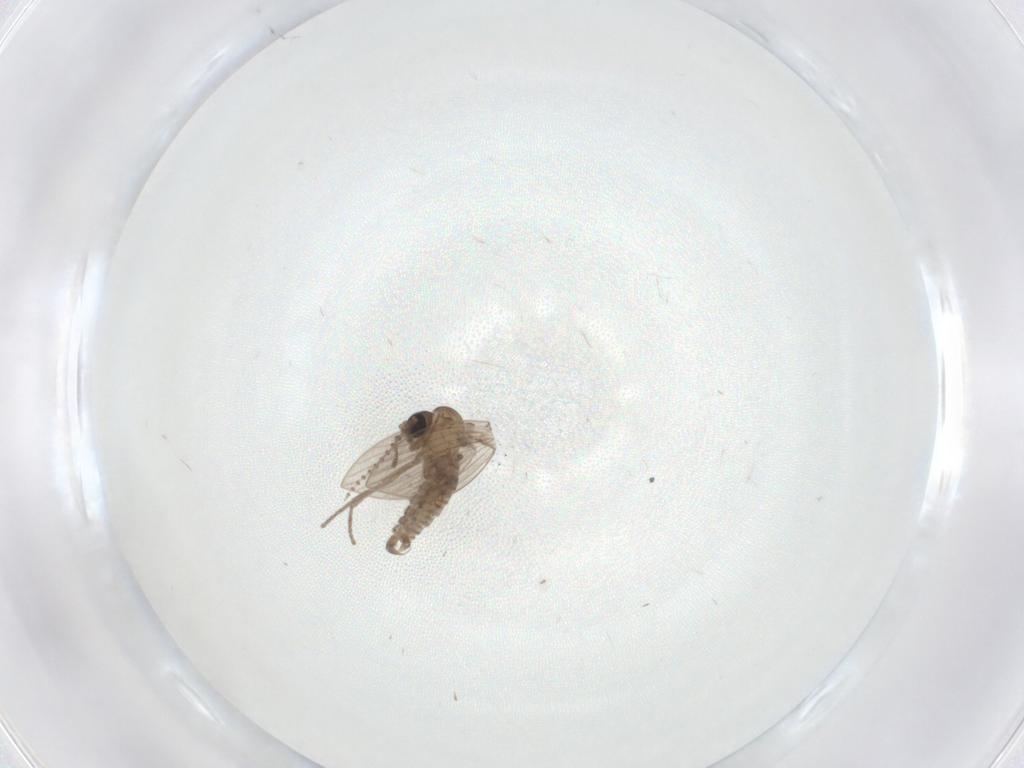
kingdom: Animalia
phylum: Arthropoda
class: Insecta
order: Diptera
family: Psychodidae
